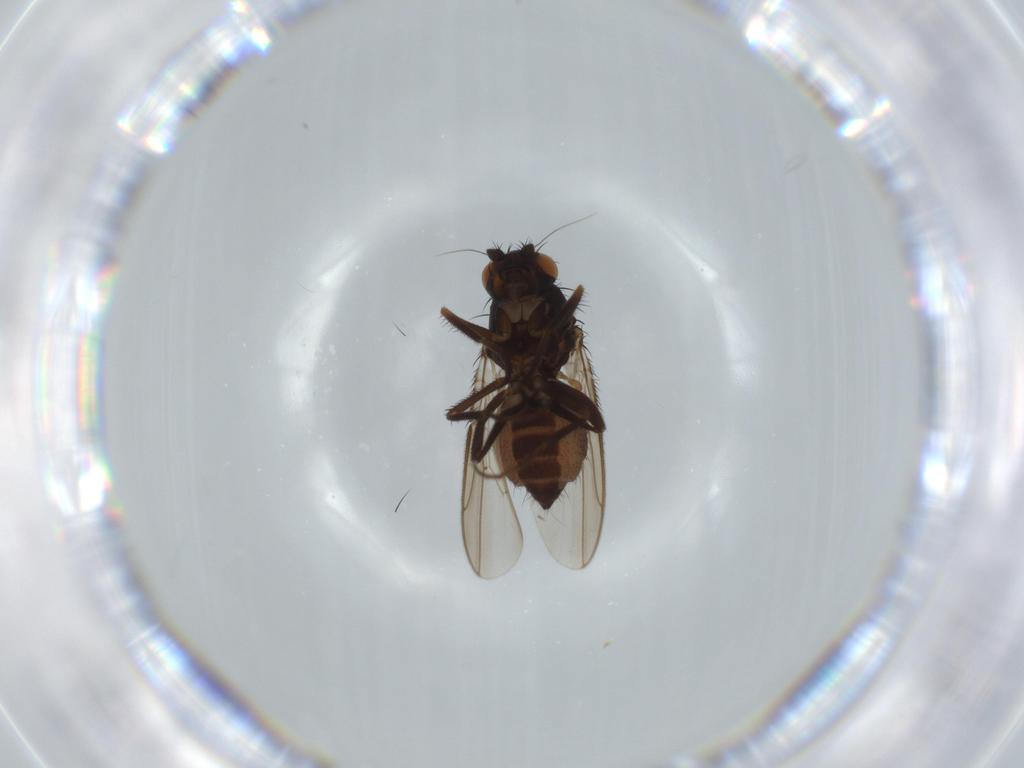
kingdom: Animalia
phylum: Arthropoda
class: Insecta
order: Diptera
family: Sphaeroceridae
